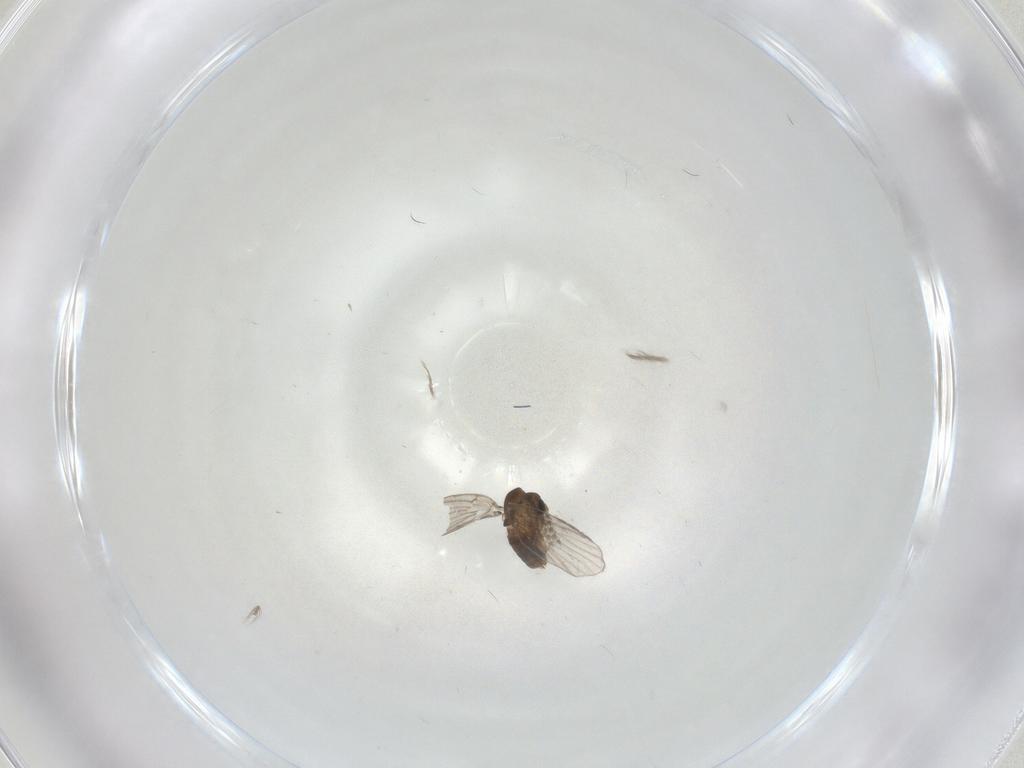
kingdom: Animalia
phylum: Arthropoda
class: Insecta
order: Diptera
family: Ceratopogonidae
